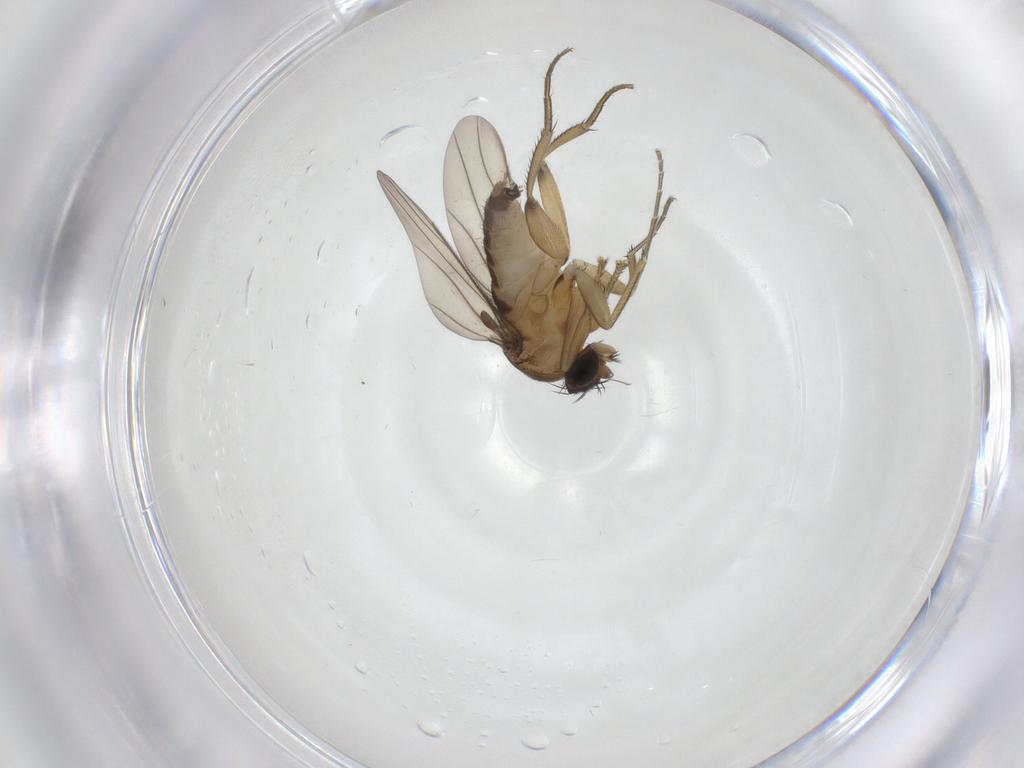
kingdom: Animalia
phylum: Arthropoda
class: Insecta
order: Diptera
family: Phoridae
